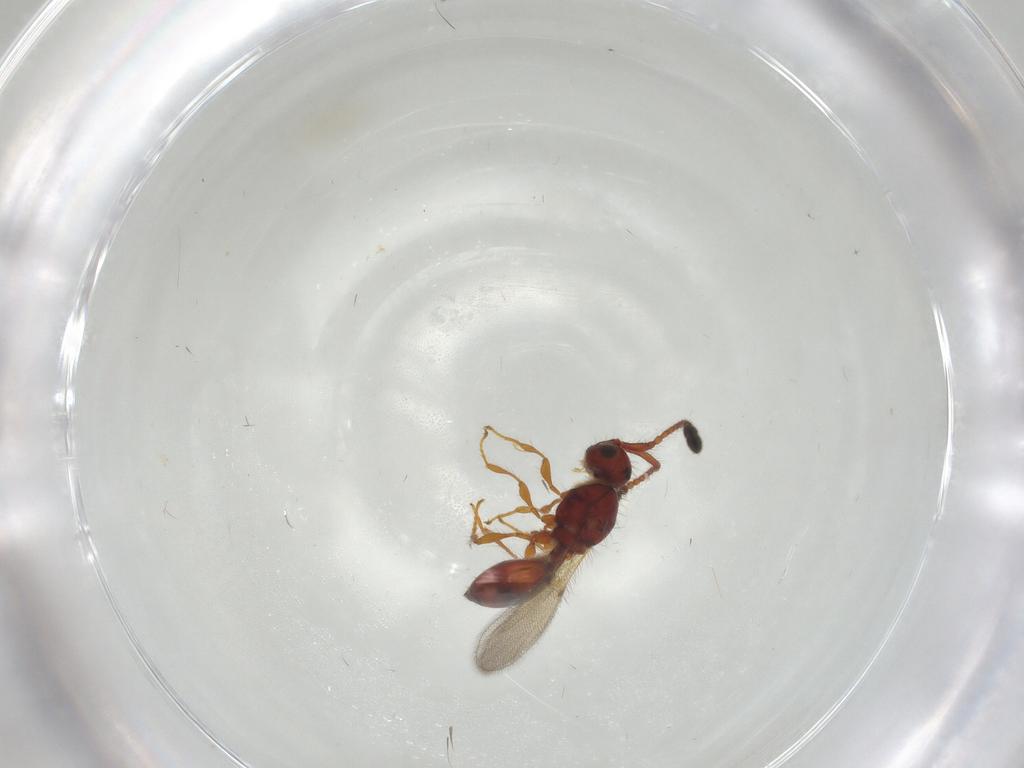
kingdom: Animalia
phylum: Arthropoda
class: Insecta
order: Hymenoptera
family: Diapriidae
